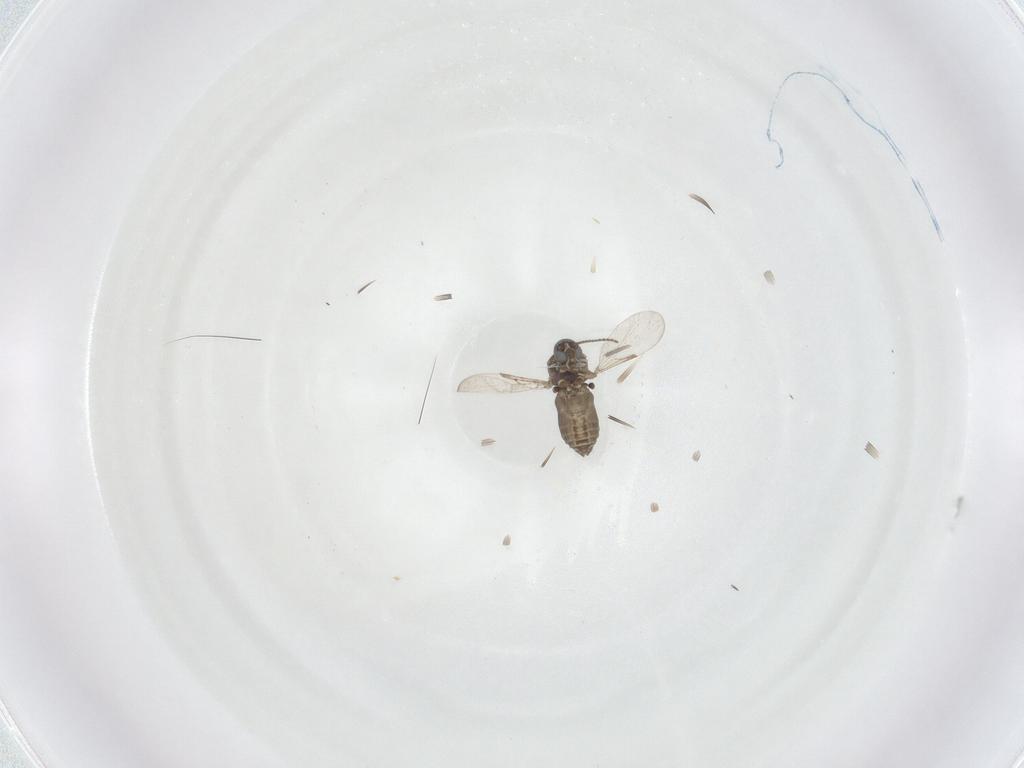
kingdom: Animalia
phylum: Arthropoda
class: Insecta
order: Diptera
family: Ceratopogonidae
